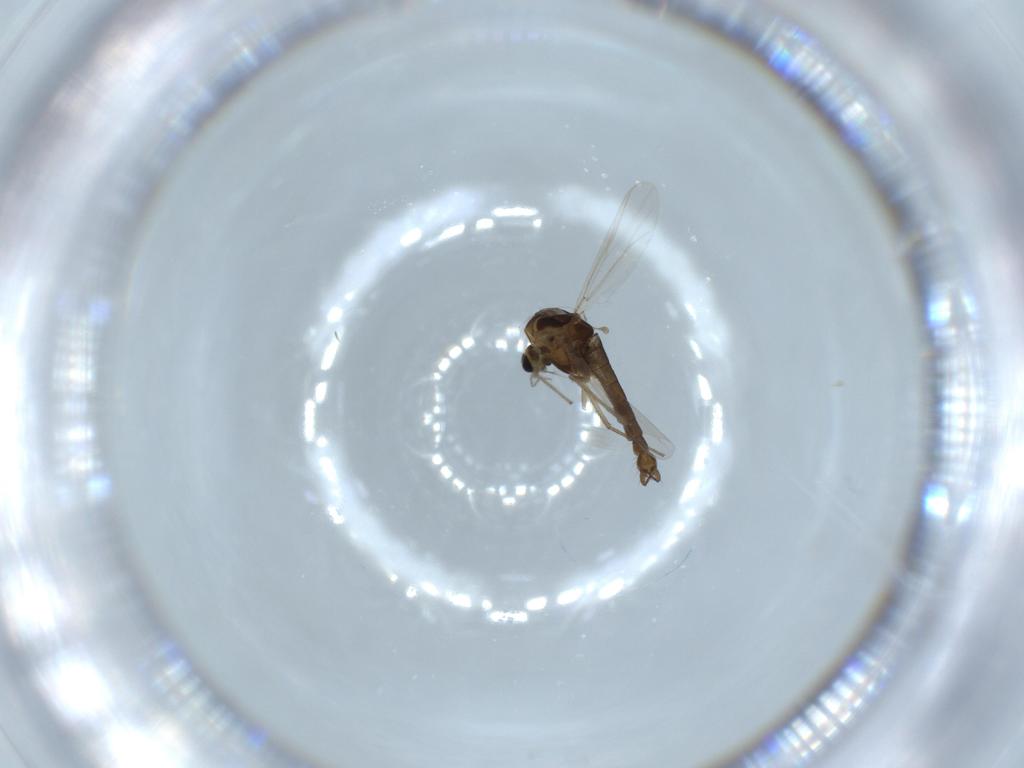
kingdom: Animalia
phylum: Arthropoda
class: Insecta
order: Diptera
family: Chironomidae
